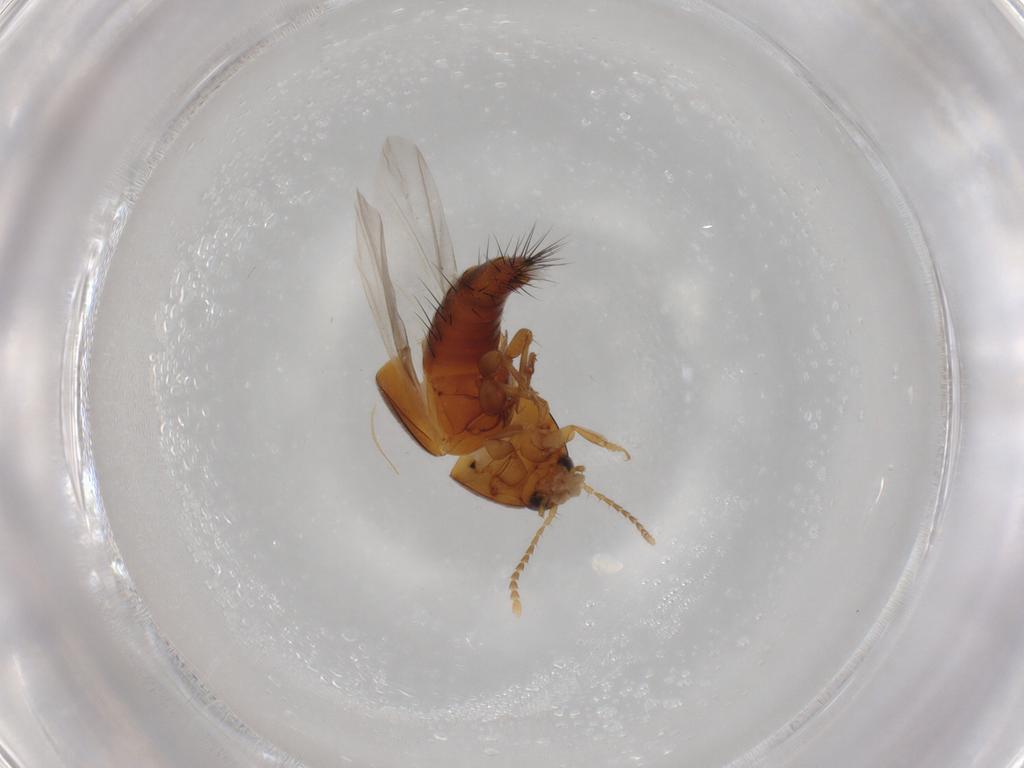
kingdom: Animalia
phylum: Arthropoda
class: Insecta
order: Coleoptera
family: Staphylinidae
